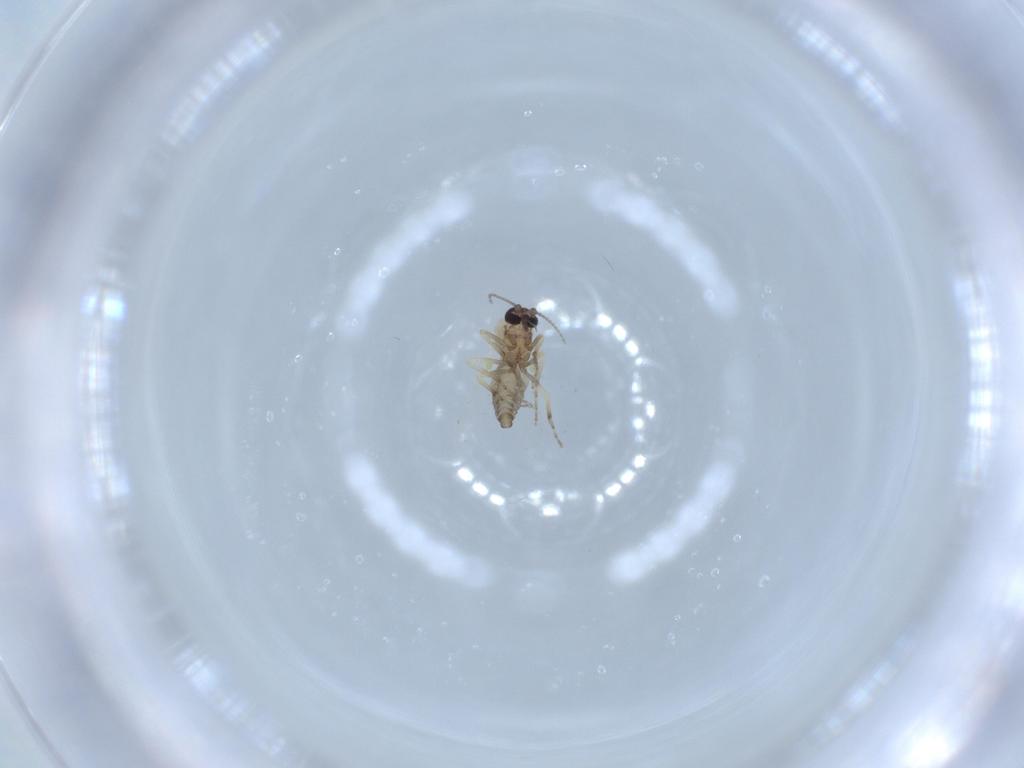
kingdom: Animalia
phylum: Arthropoda
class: Insecta
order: Diptera
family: Ceratopogonidae
